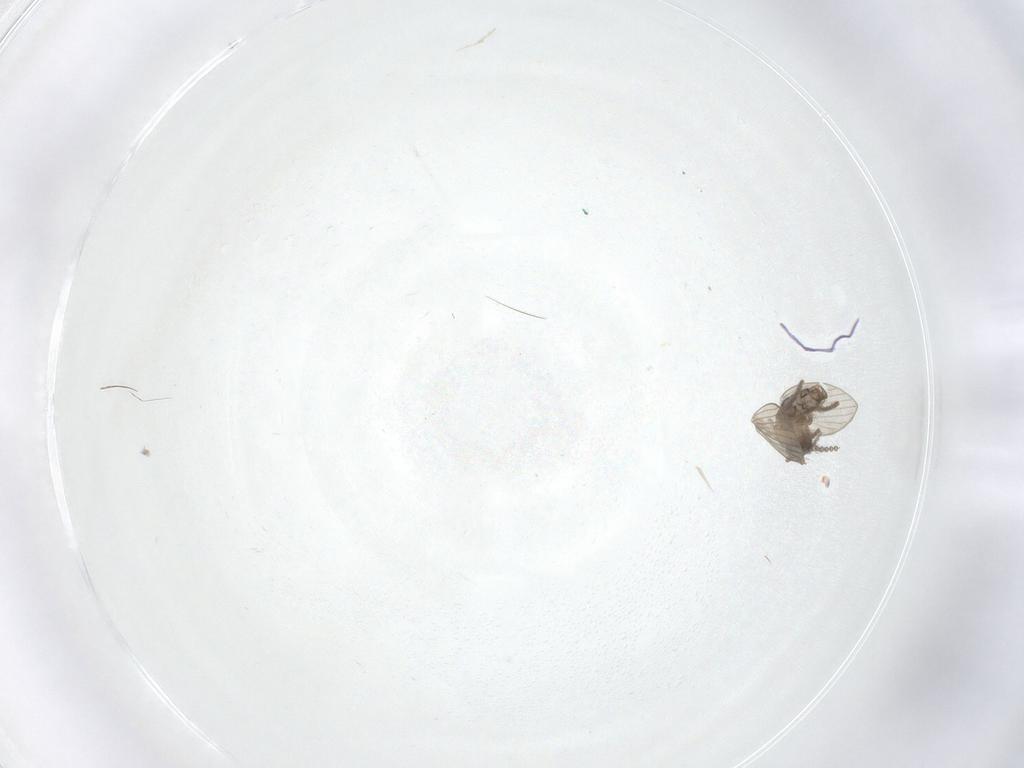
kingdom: Animalia
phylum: Arthropoda
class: Insecta
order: Diptera
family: Psychodidae
